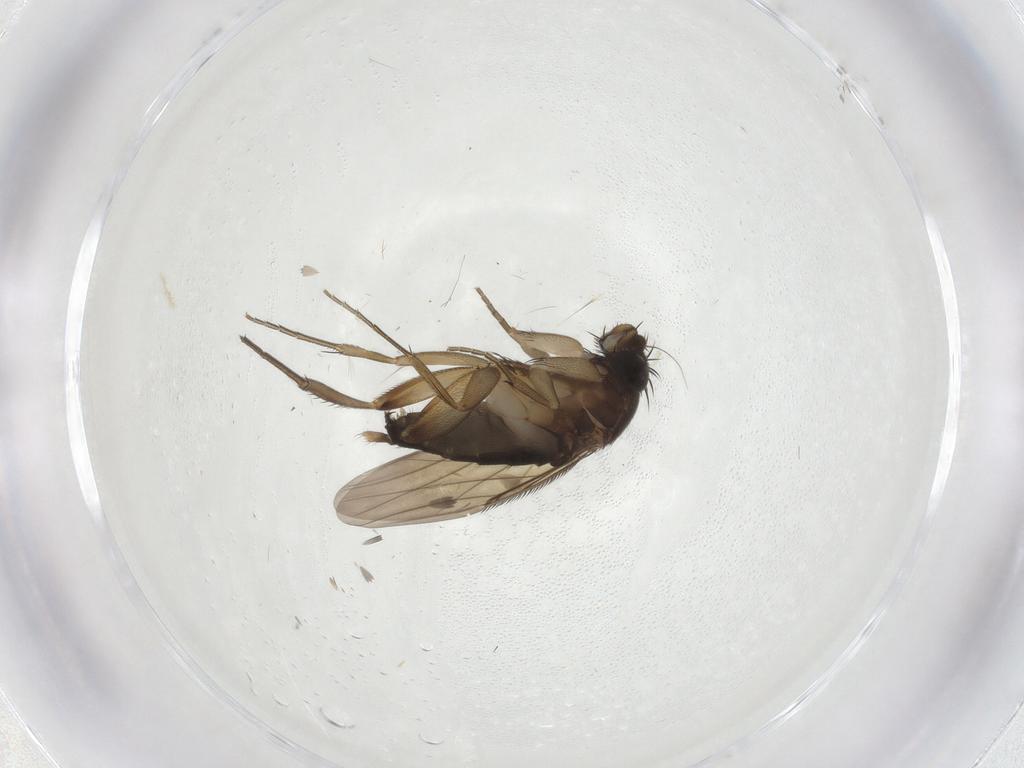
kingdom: Animalia
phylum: Arthropoda
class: Insecta
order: Diptera
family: Phoridae
